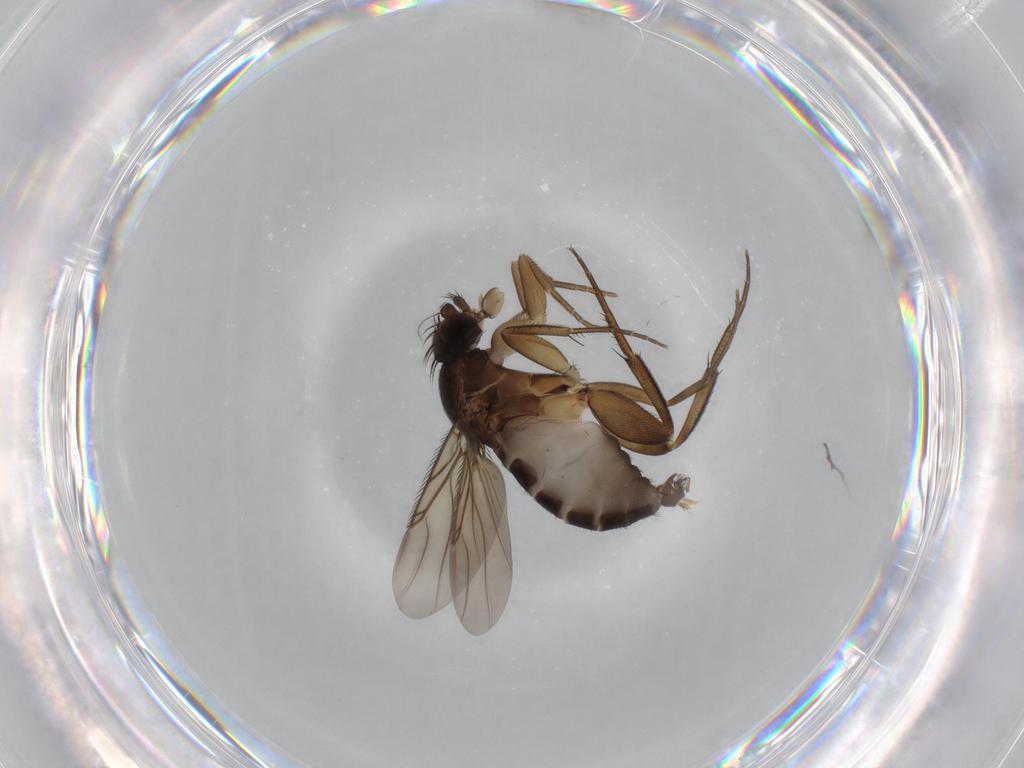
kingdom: Animalia
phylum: Arthropoda
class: Insecta
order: Diptera
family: Phoridae
